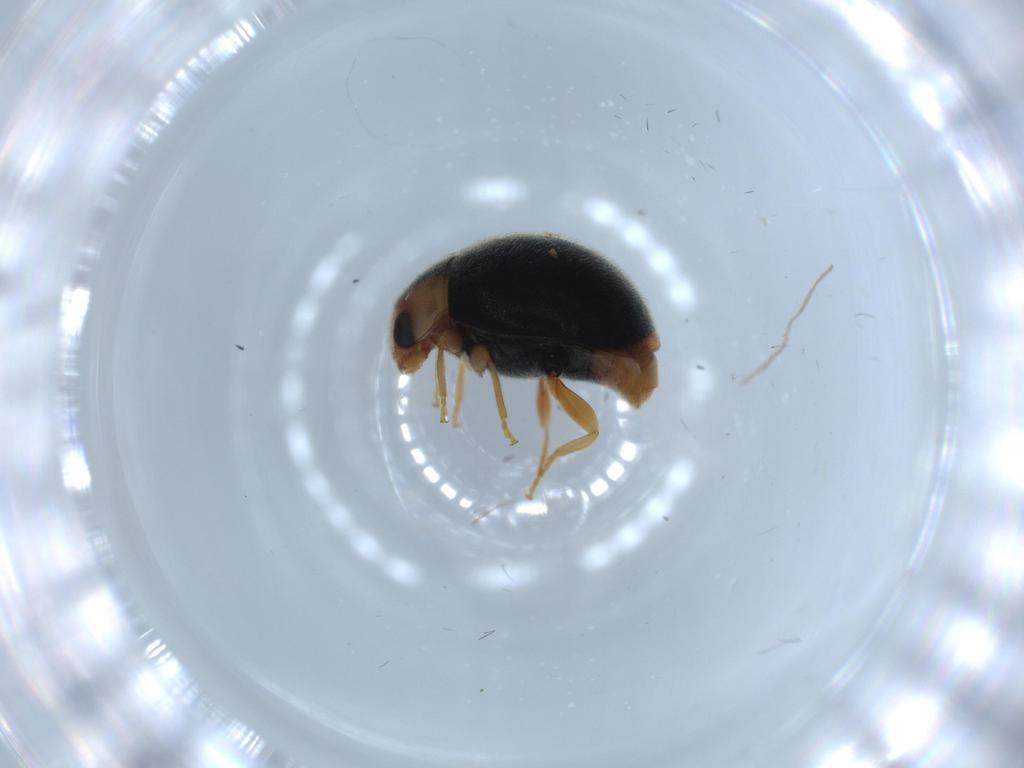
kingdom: Animalia
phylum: Arthropoda
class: Insecta
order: Coleoptera
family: Coccinellidae
